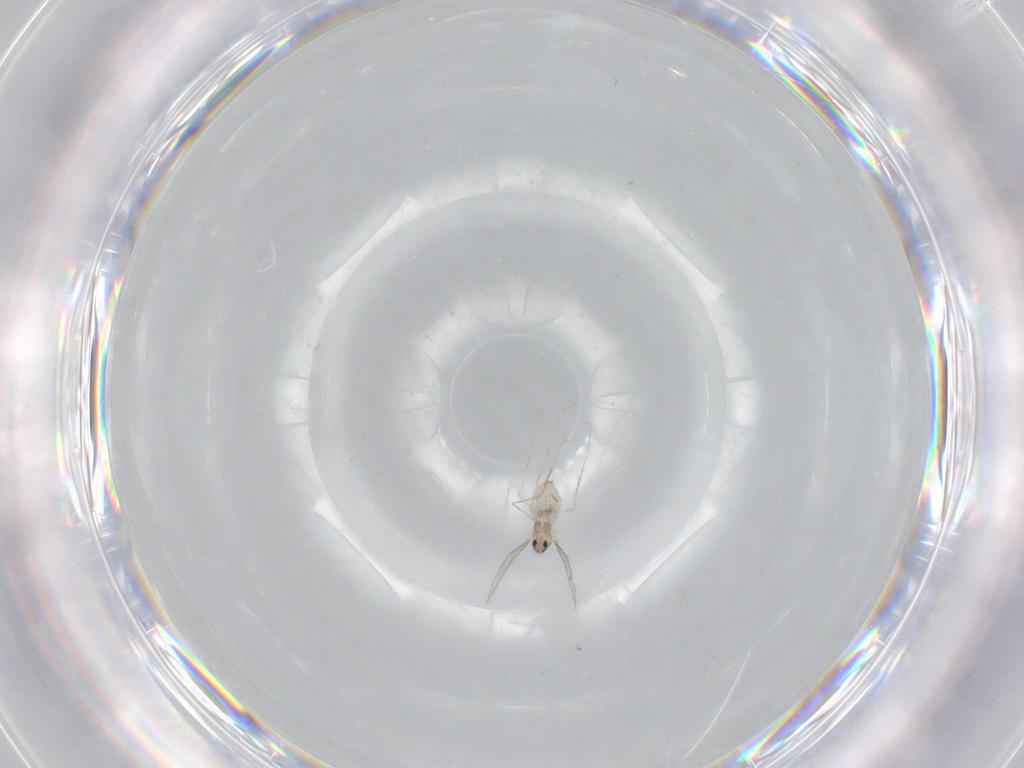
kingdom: Animalia
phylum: Arthropoda
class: Insecta
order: Diptera
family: Cecidomyiidae
